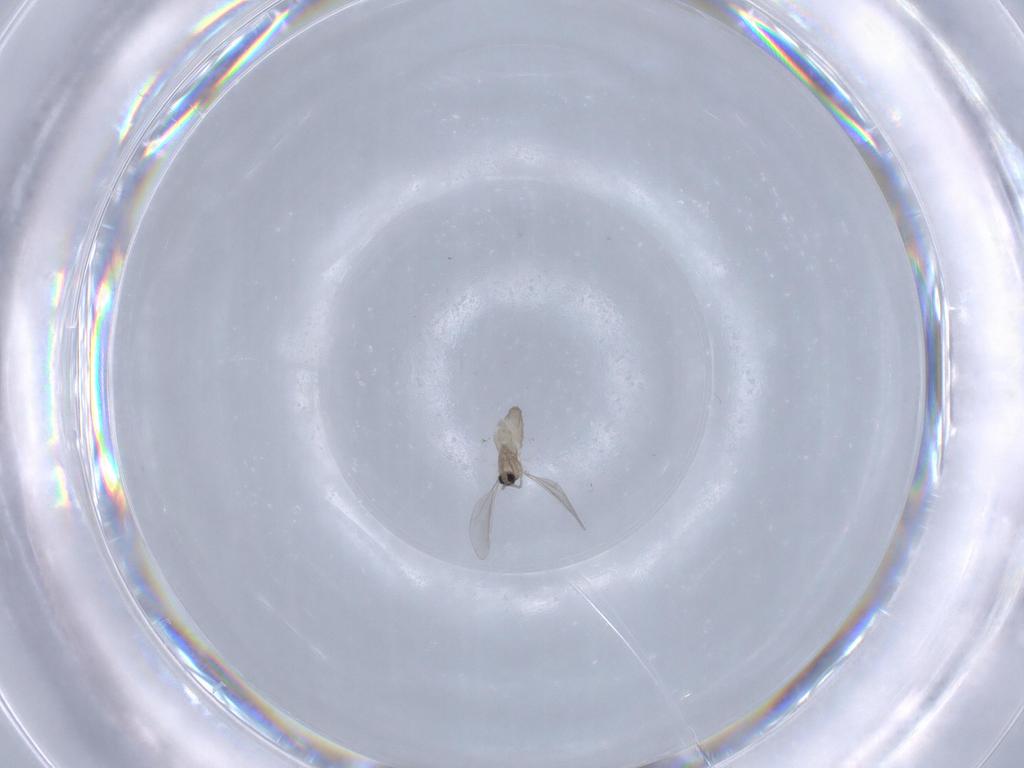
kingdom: Animalia
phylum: Arthropoda
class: Insecta
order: Diptera
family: Cecidomyiidae
